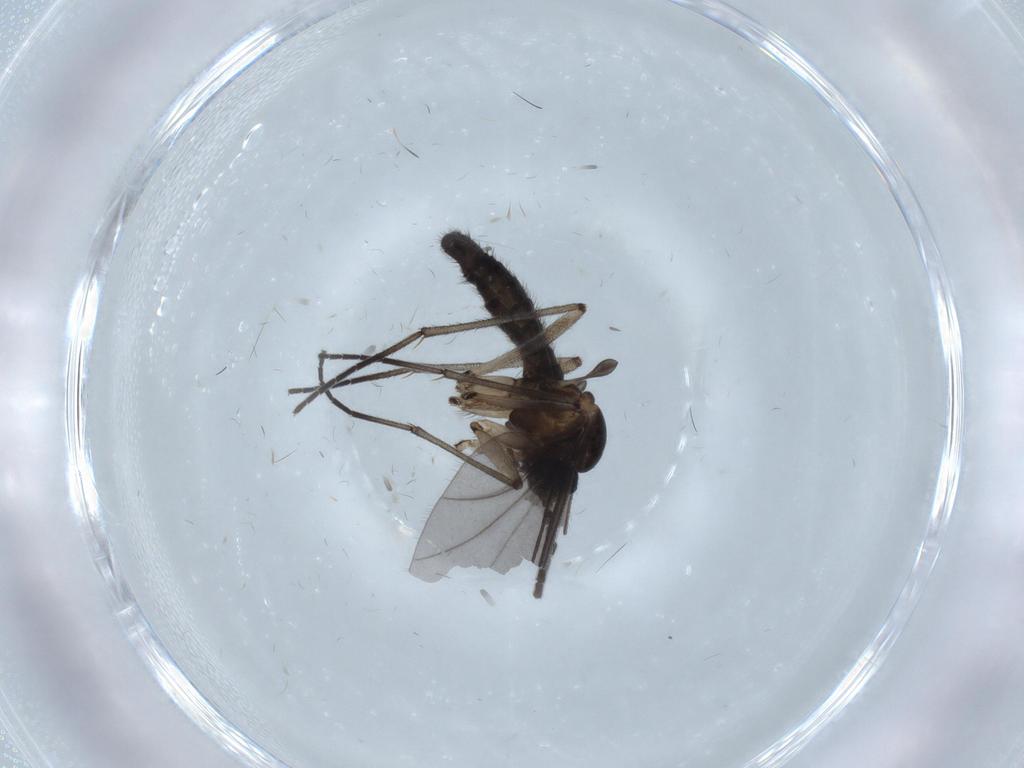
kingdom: Animalia
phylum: Arthropoda
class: Insecta
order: Diptera
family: Sciaridae
